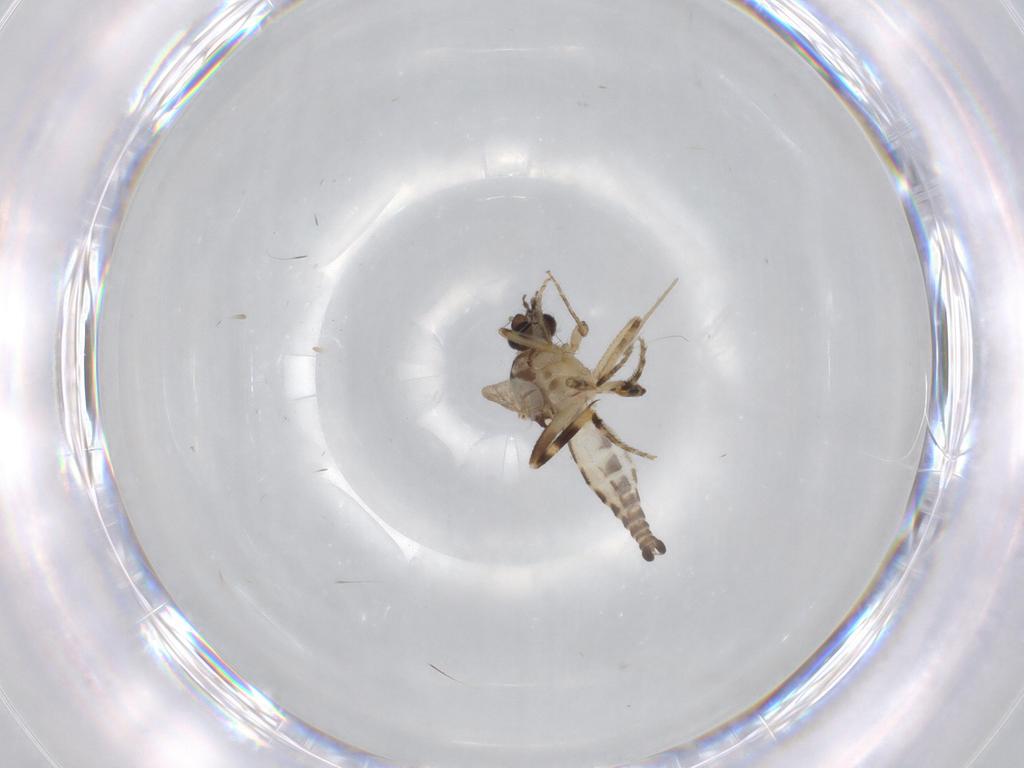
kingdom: Animalia
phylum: Arthropoda
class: Insecta
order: Diptera
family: Ceratopogonidae
